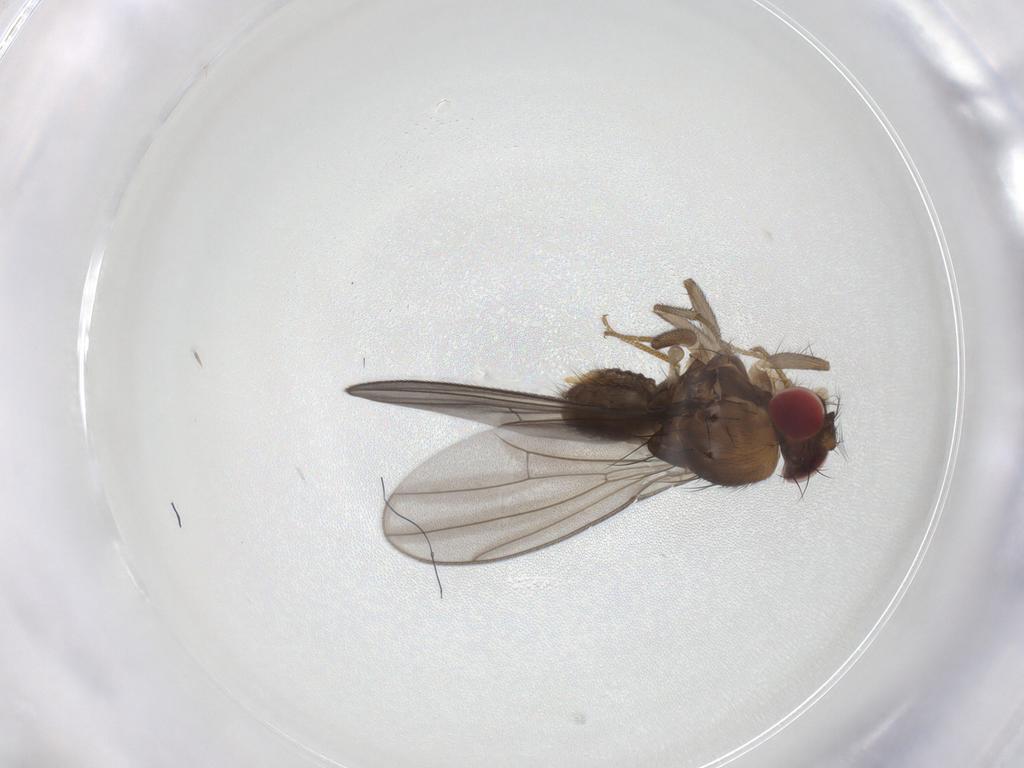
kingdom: Animalia
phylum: Arthropoda
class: Insecta
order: Diptera
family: Drosophilidae
